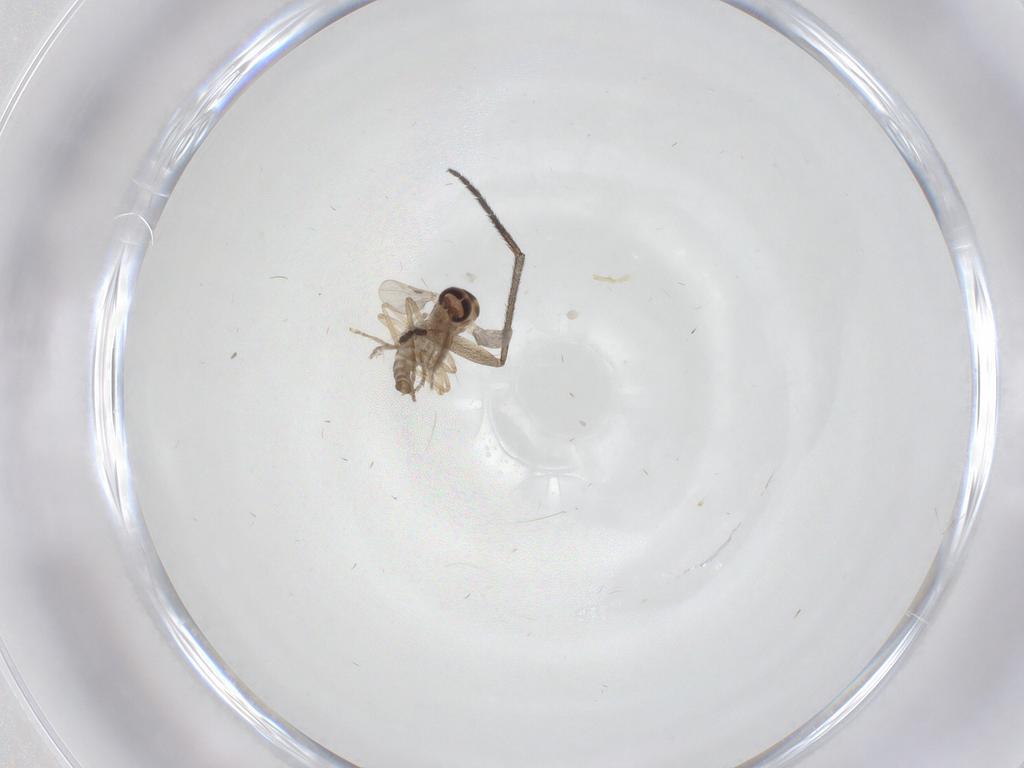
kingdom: Animalia
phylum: Arthropoda
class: Insecta
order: Diptera
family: Ceratopogonidae
